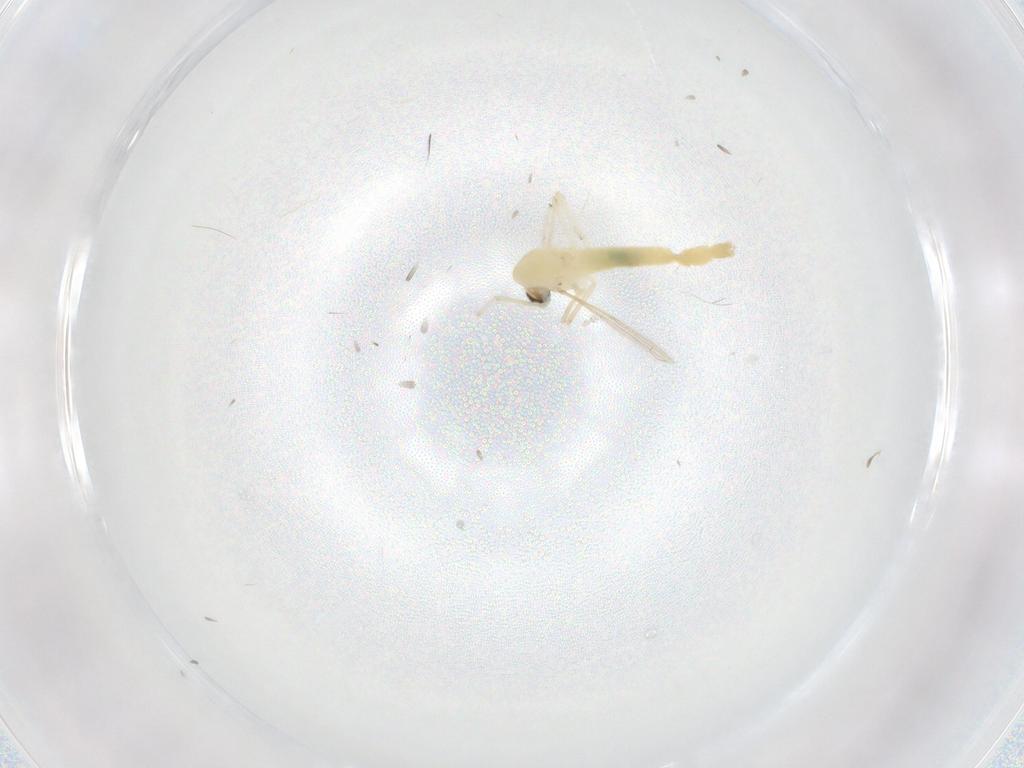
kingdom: Animalia
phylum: Arthropoda
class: Insecta
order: Diptera
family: Chironomidae
